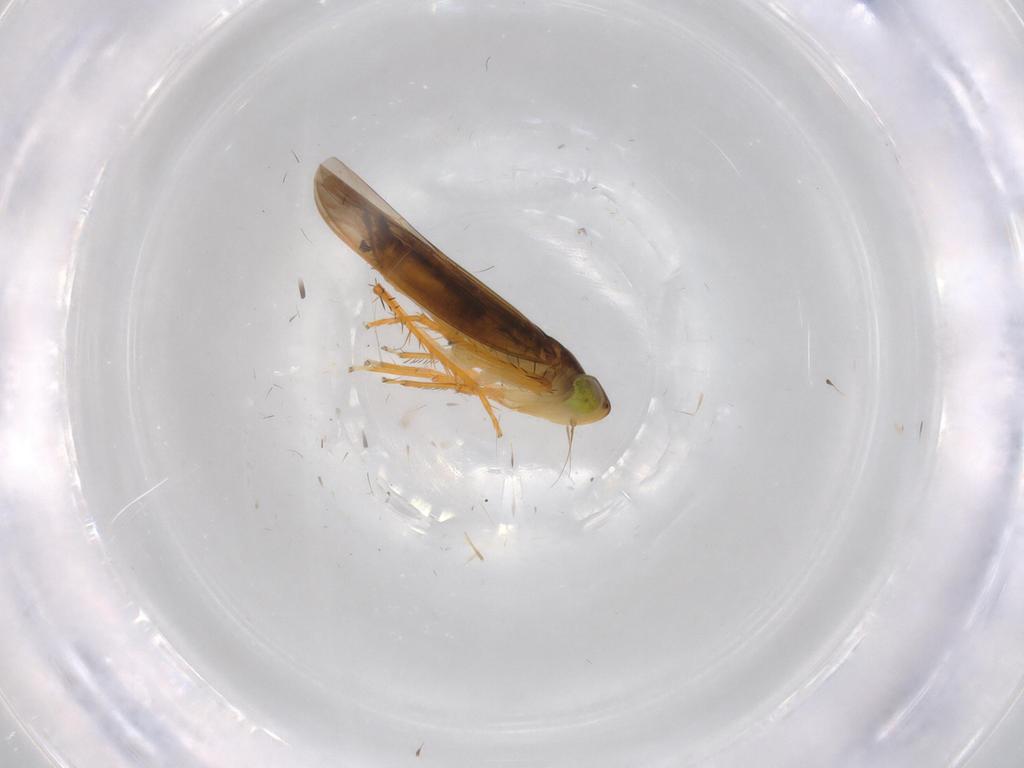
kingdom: Animalia
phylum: Arthropoda
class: Insecta
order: Hemiptera
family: Cicadellidae
